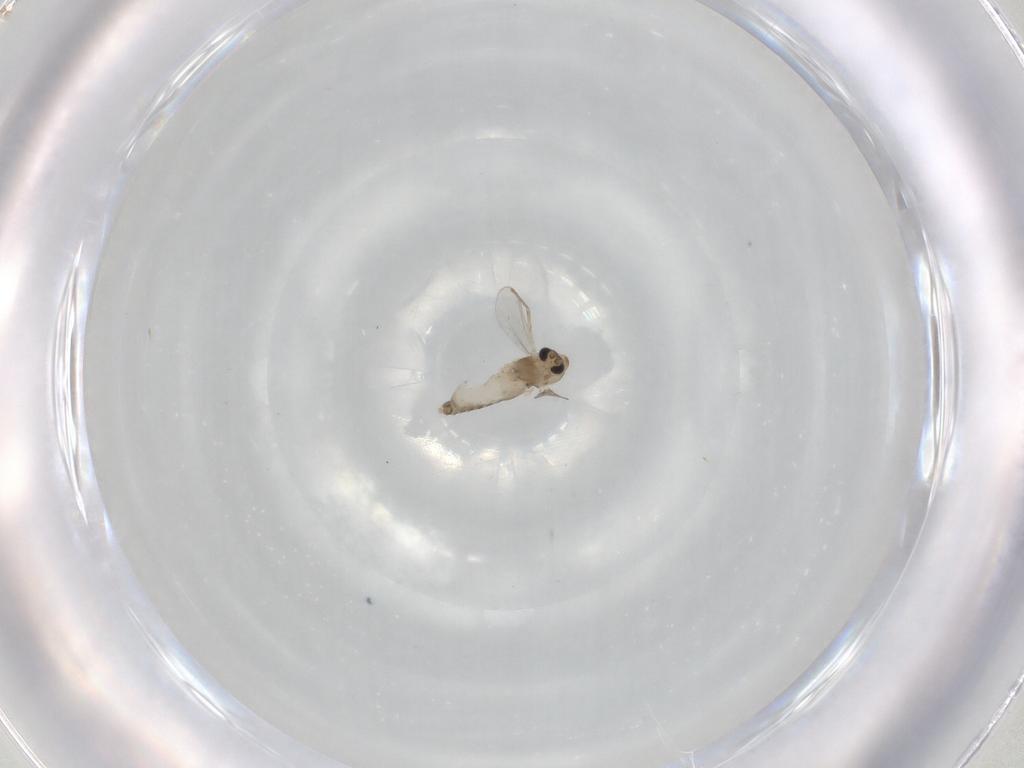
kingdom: Animalia
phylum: Arthropoda
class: Insecta
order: Diptera
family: Chironomidae
